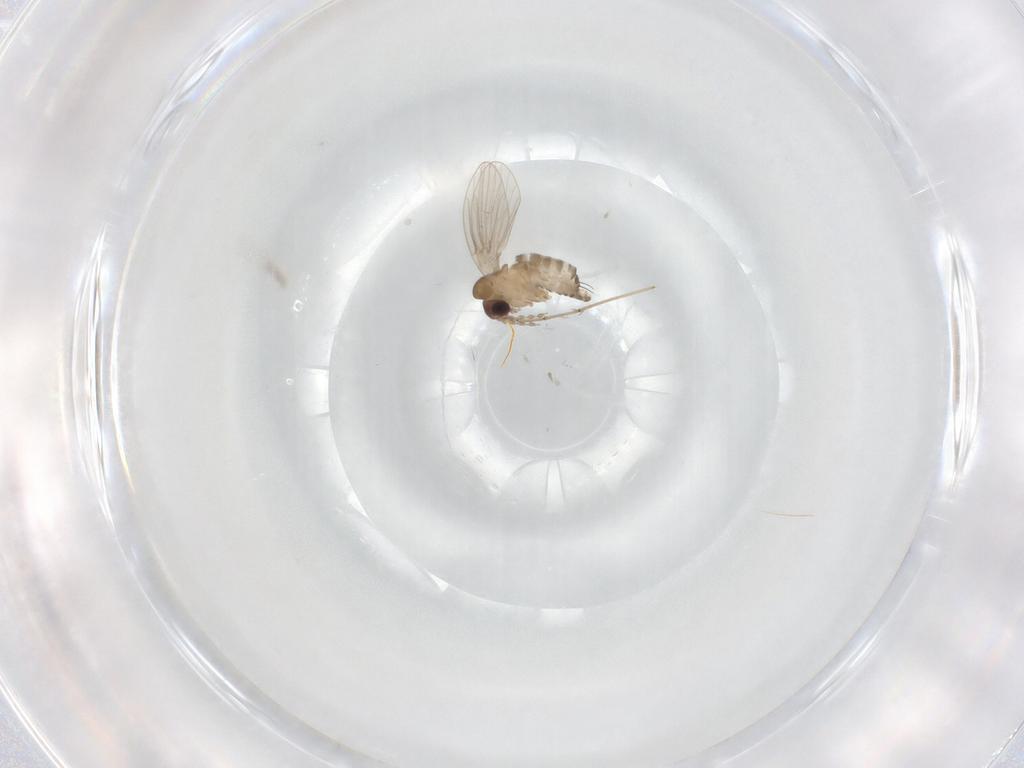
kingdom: Animalia
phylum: Arthropoda
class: Insecta
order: Diptera
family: Cecidomyiidae
